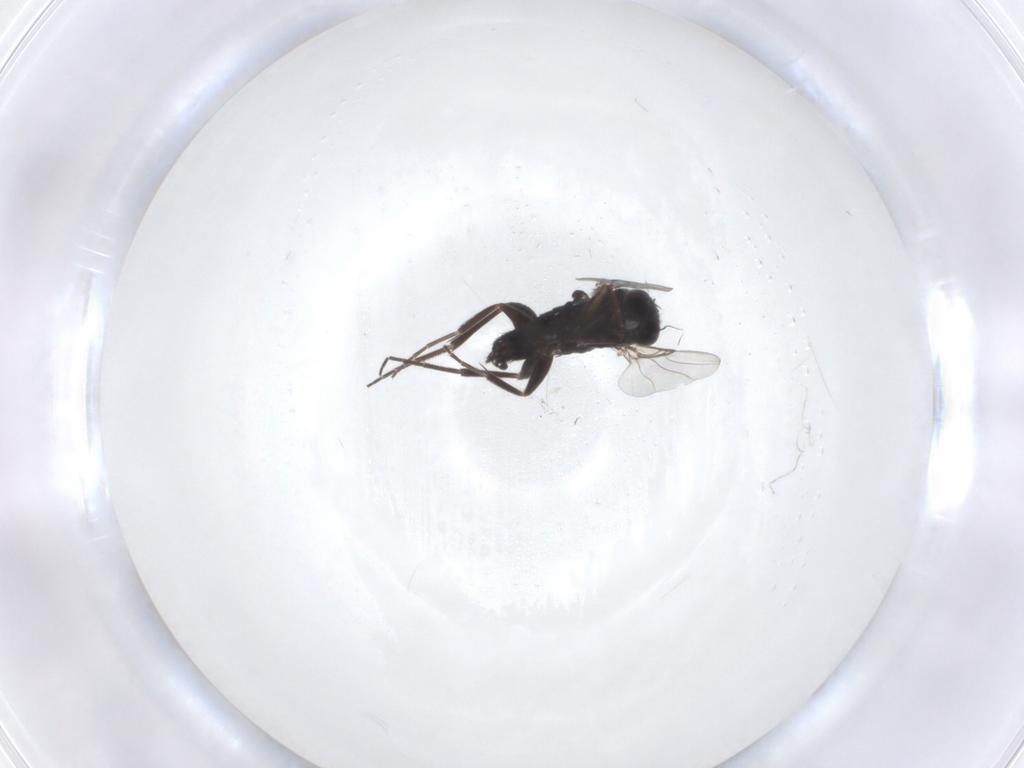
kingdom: Animalia
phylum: Arthropoda
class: Insecta
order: Diptera
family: Phoridae
